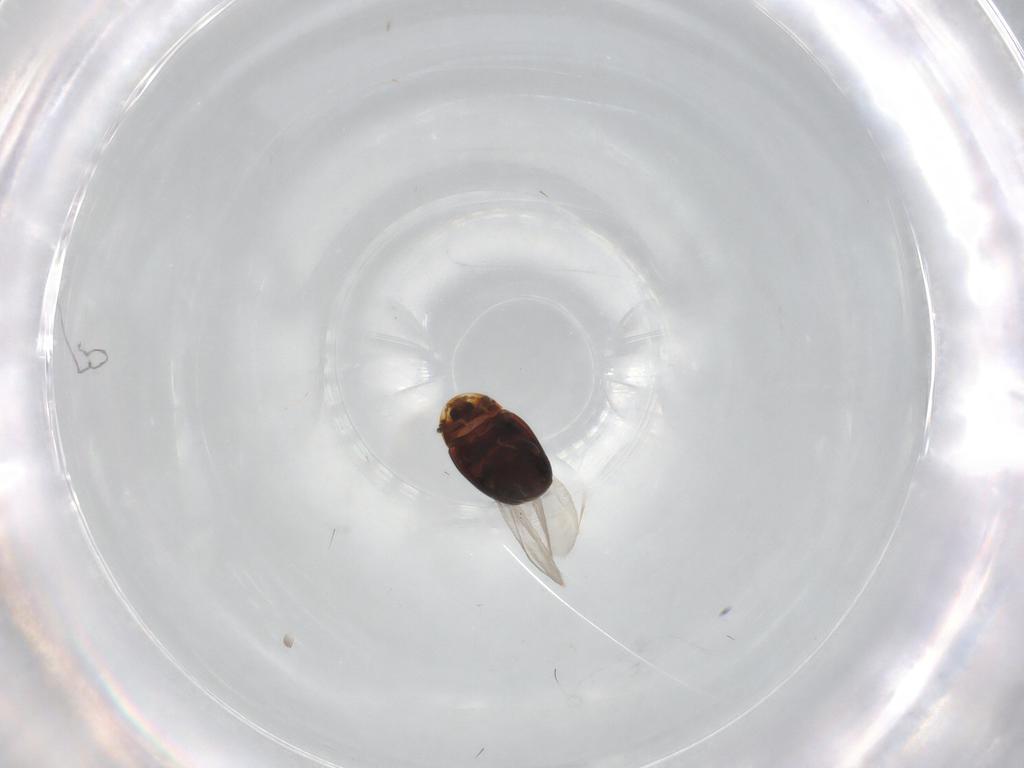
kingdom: Animalia
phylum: Arthropoda
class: Insecta
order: Coleoptera
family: Corylophidae
